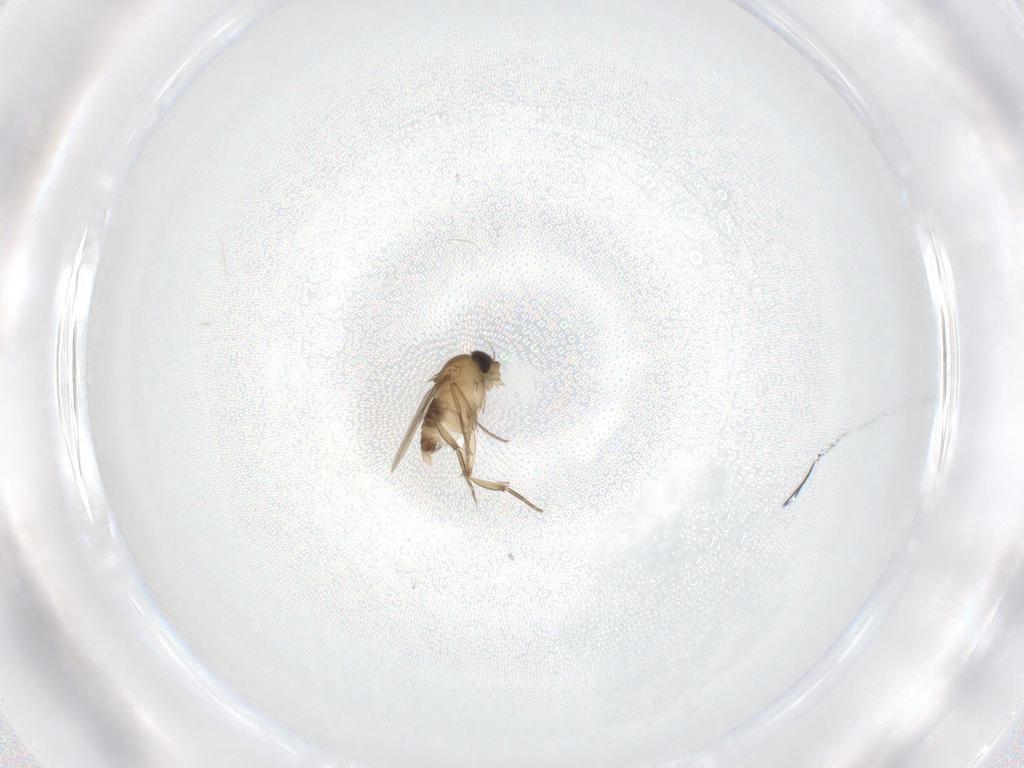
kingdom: Animalia
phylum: Arthropoda
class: Insecta
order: Diptera
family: Phoridae
